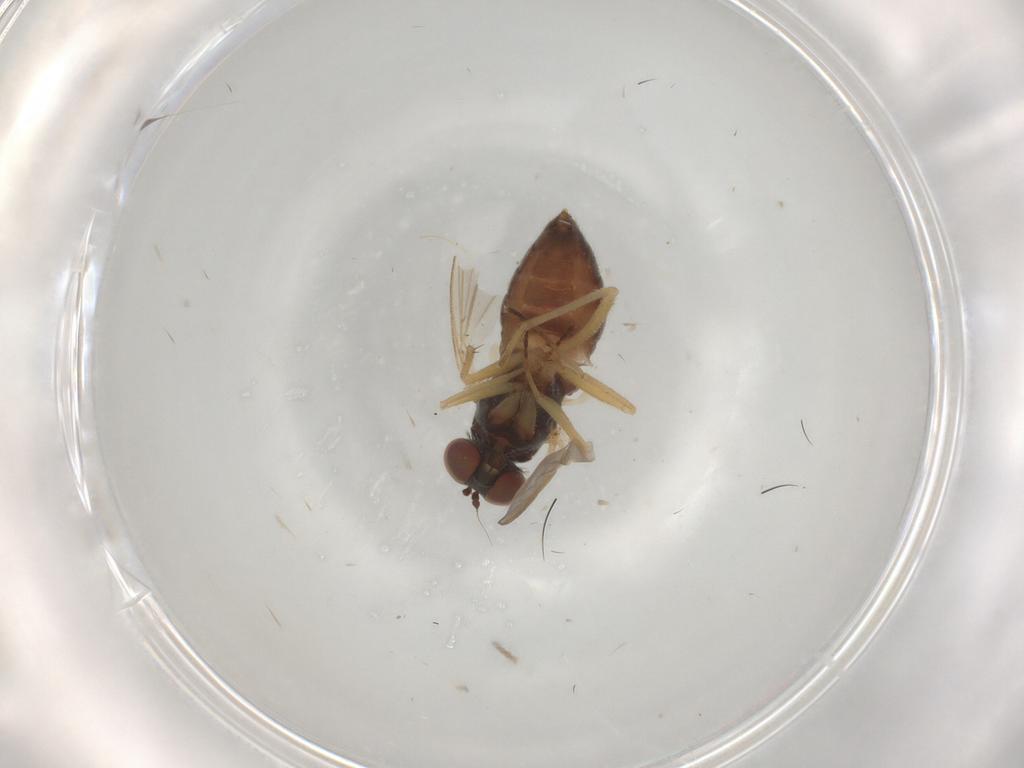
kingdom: Animalia
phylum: Arthropoda
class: Insecta
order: Diptera
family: Dolichopodidae
